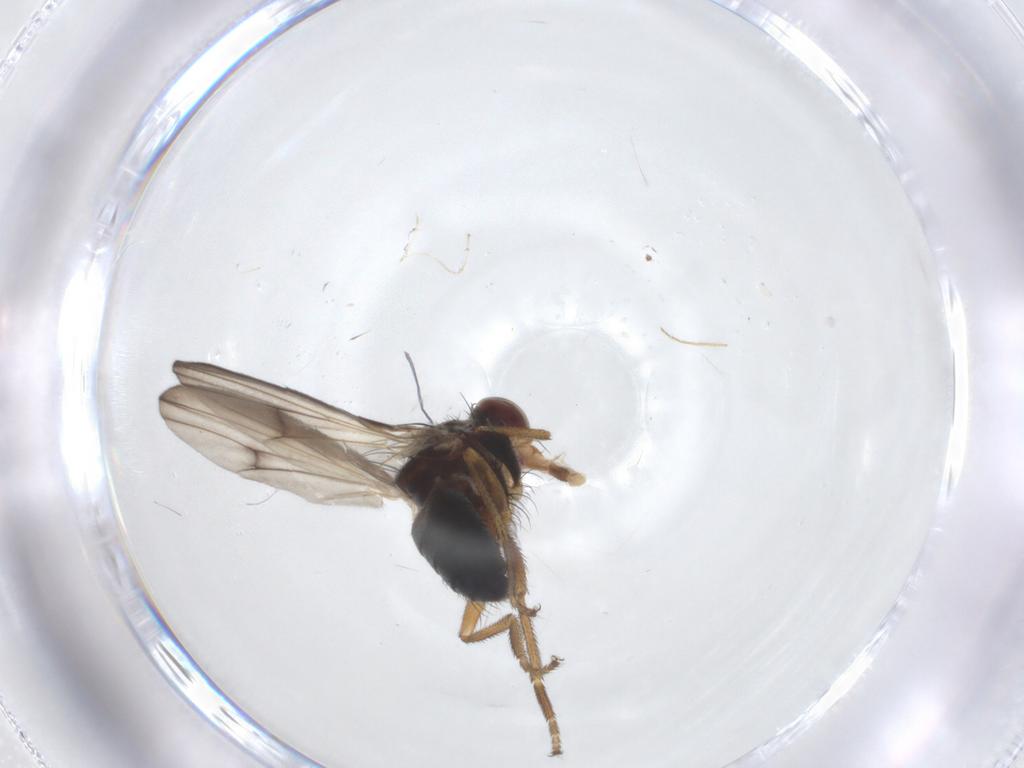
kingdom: Animalia
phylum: Arthropoda
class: Insecta
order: Diptera
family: Heleomyzidae
